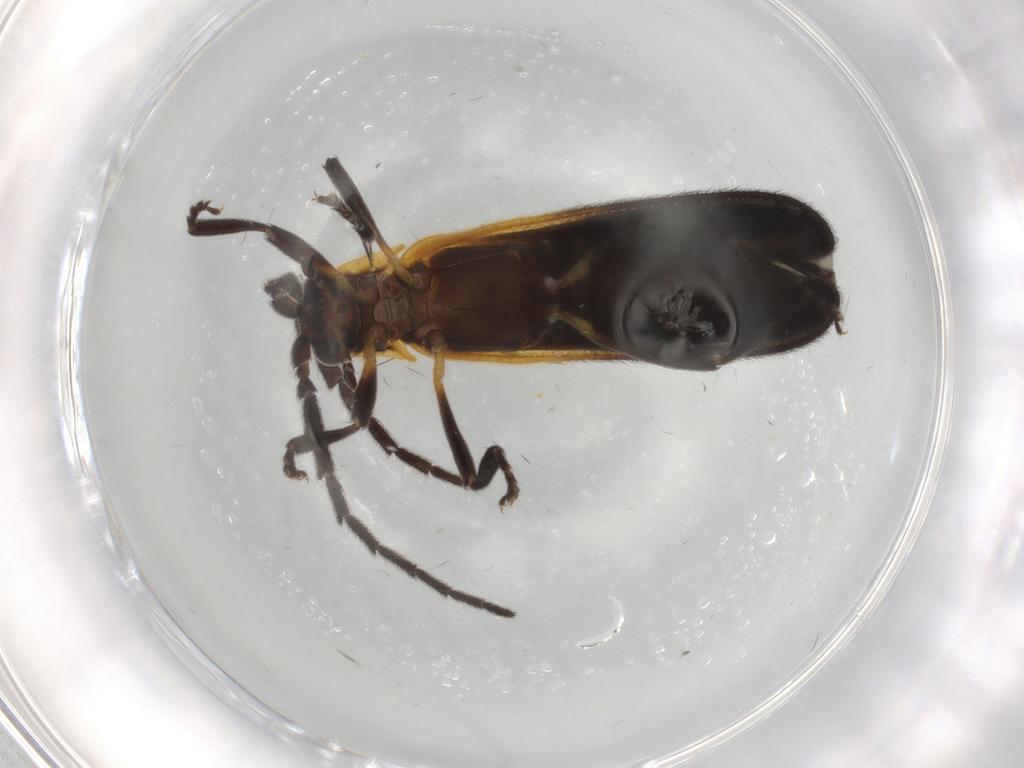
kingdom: Animalia
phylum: Arthropoda
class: Insecta
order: Coleoptera
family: Lycidae
